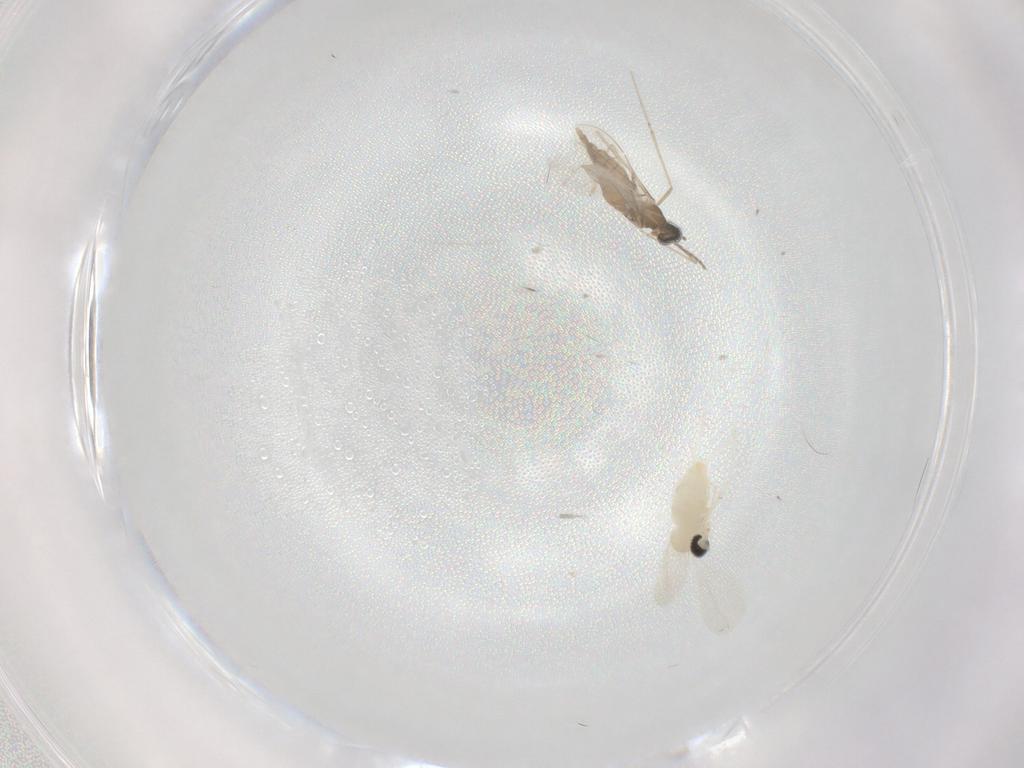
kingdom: Animalia
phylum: Arthropoda
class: Insecta
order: Diptera
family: Cecidomyiidae
